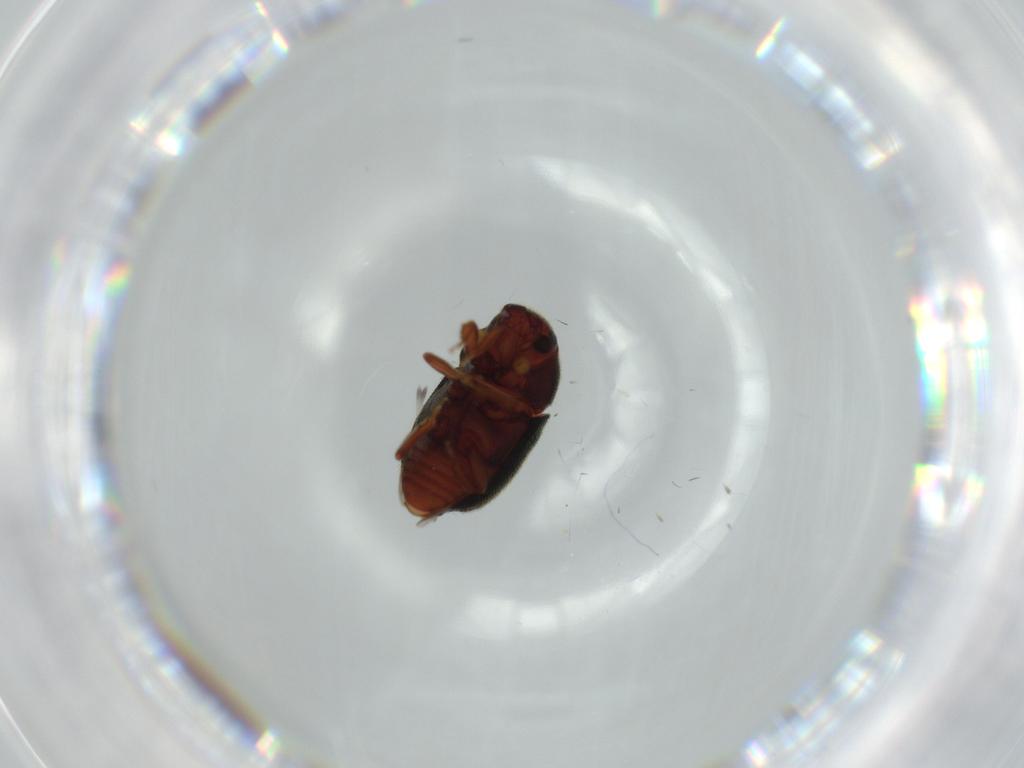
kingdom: Animalia
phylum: Arthropoda
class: Insecta
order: Coleoptera
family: Curculionidae
